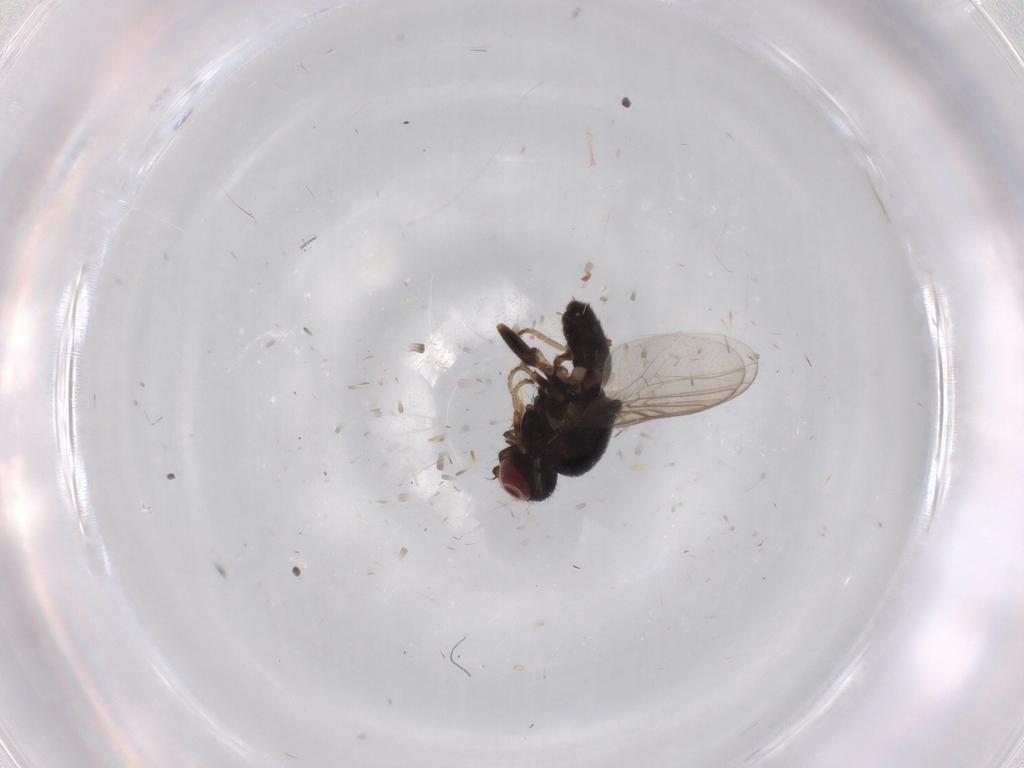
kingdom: Animalia
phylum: Arthropoda
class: Insecta
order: Diptera
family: Chloropidae
